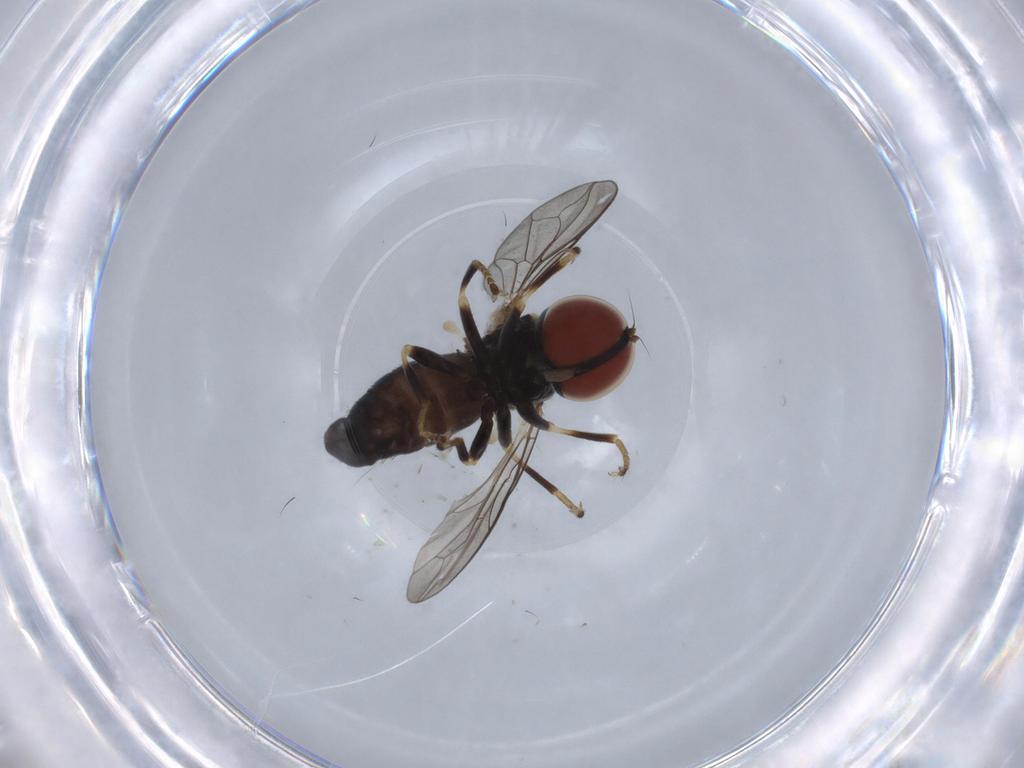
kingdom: Animalia
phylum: Arthropoda
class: Insecta
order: Diptera
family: Pipunculidae
